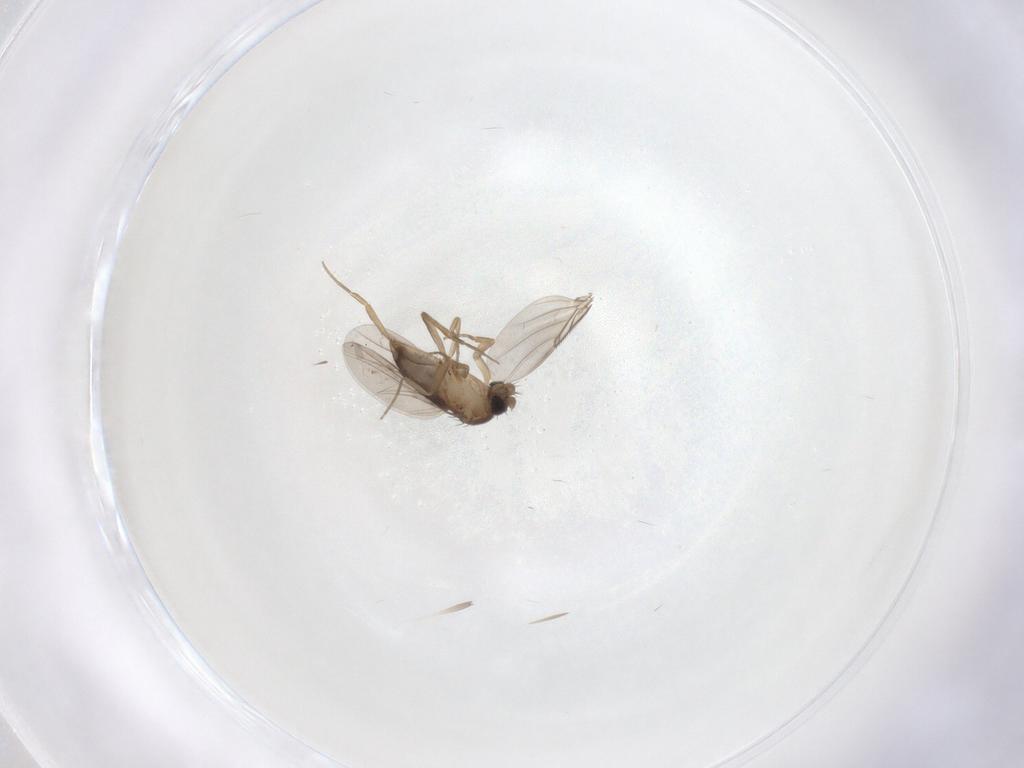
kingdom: Animalia
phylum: Arthropoda
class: Insecta
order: Diptera
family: Phoridae
